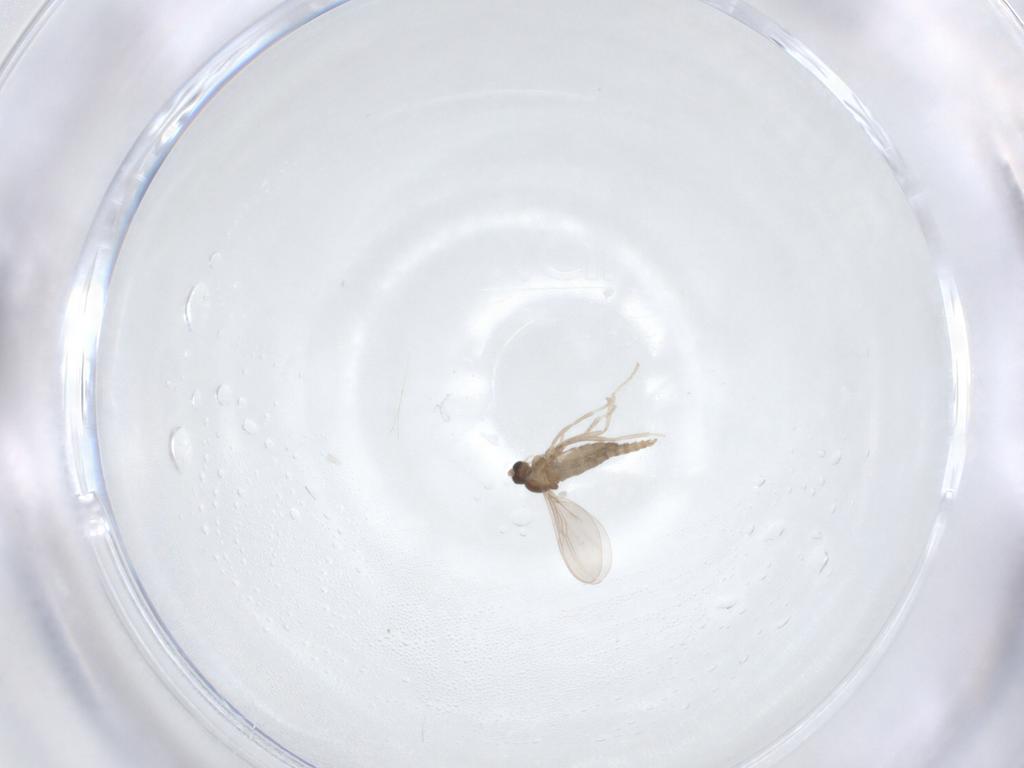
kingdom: Animalia
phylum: Arthropoda
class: Insecta
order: Diptera
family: Cecidomyiidae
